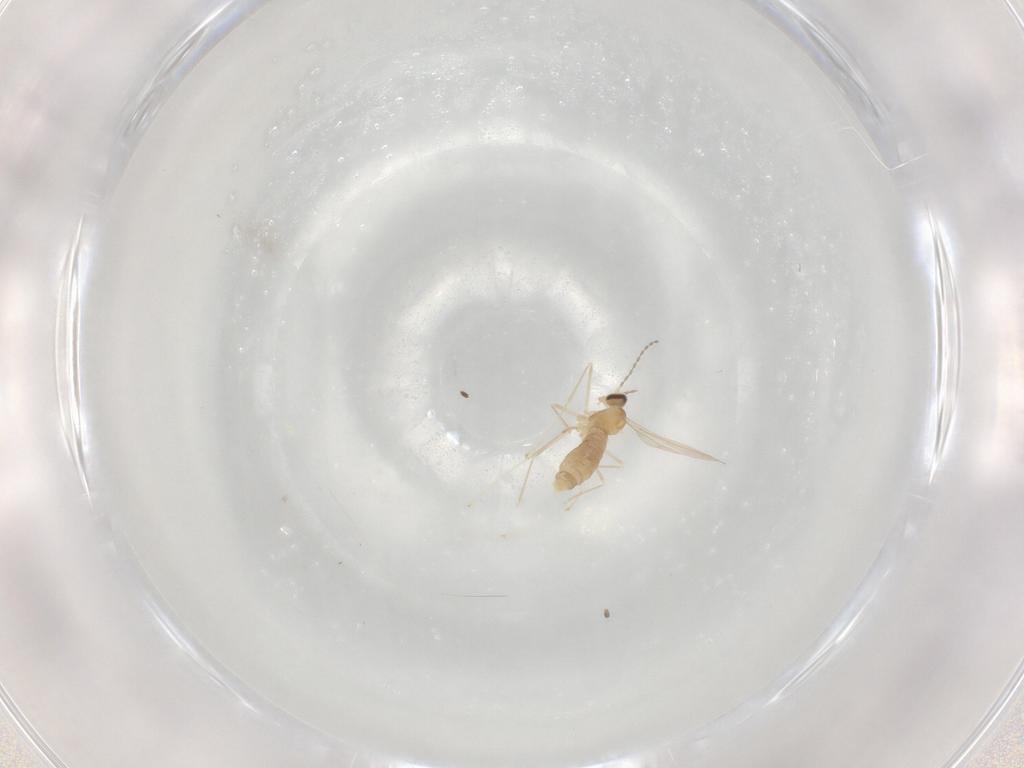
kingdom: Animalia
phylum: Arthropoda
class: Insecta
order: Diptera
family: Cecidomyiidae
